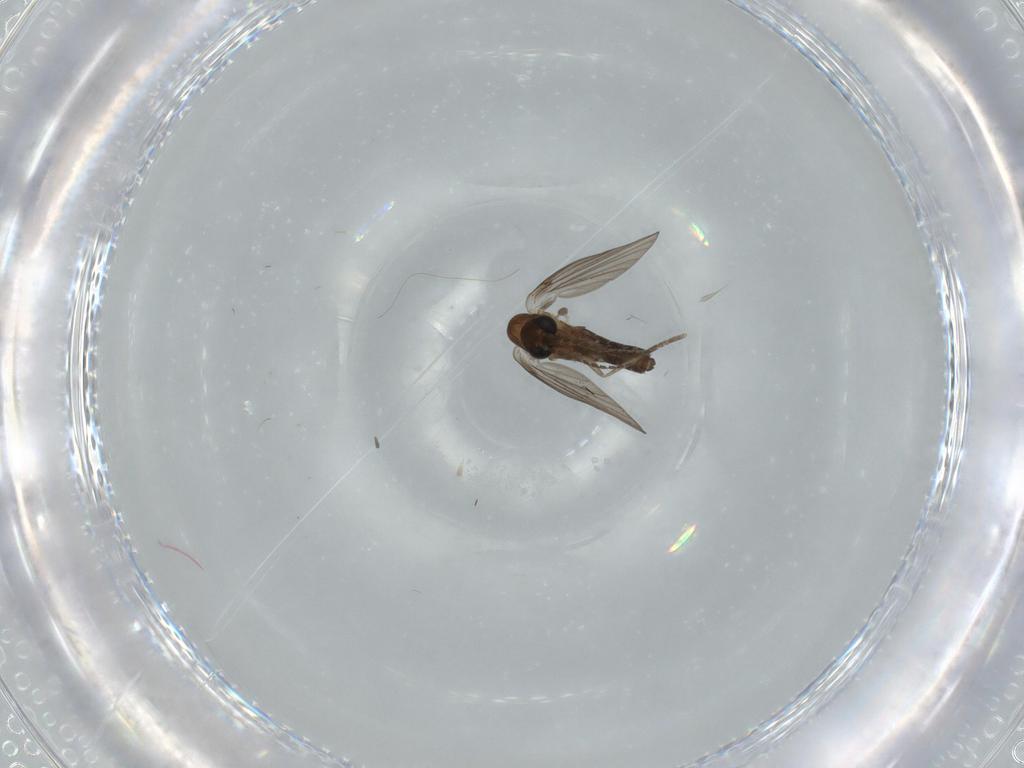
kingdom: Animalia
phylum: Arthropoda
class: Insecta
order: Diptera
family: Psychodidae
